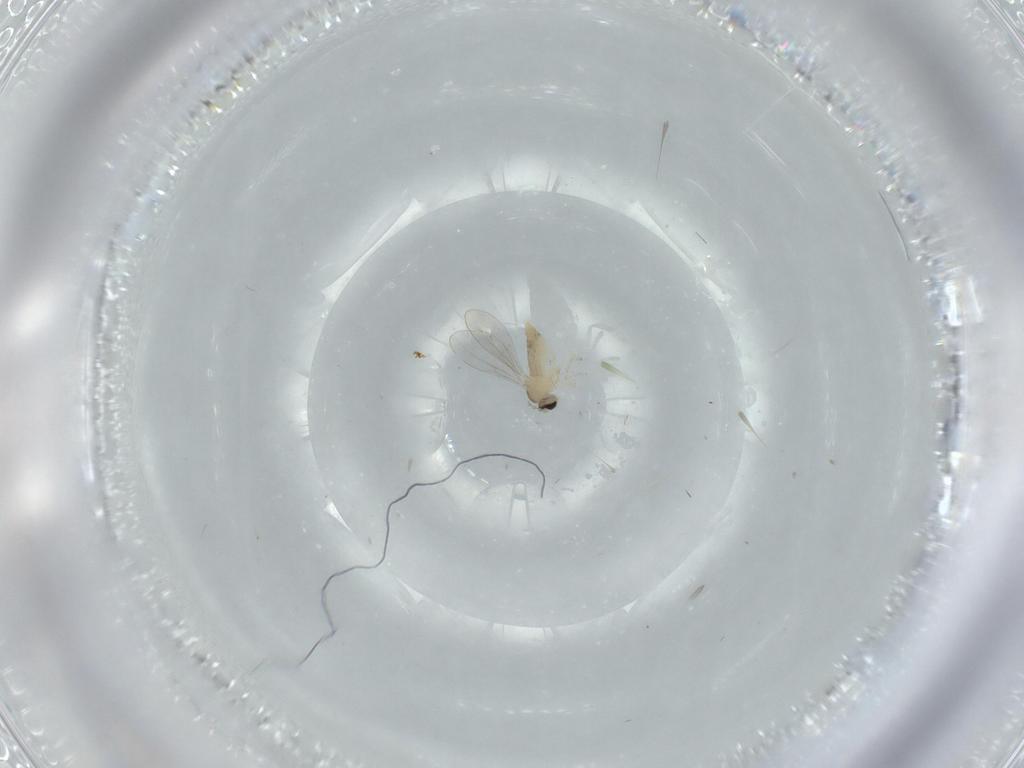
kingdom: Animalia
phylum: Arthropoda
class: Insecta
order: Diptera
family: Cecidomyiidae
